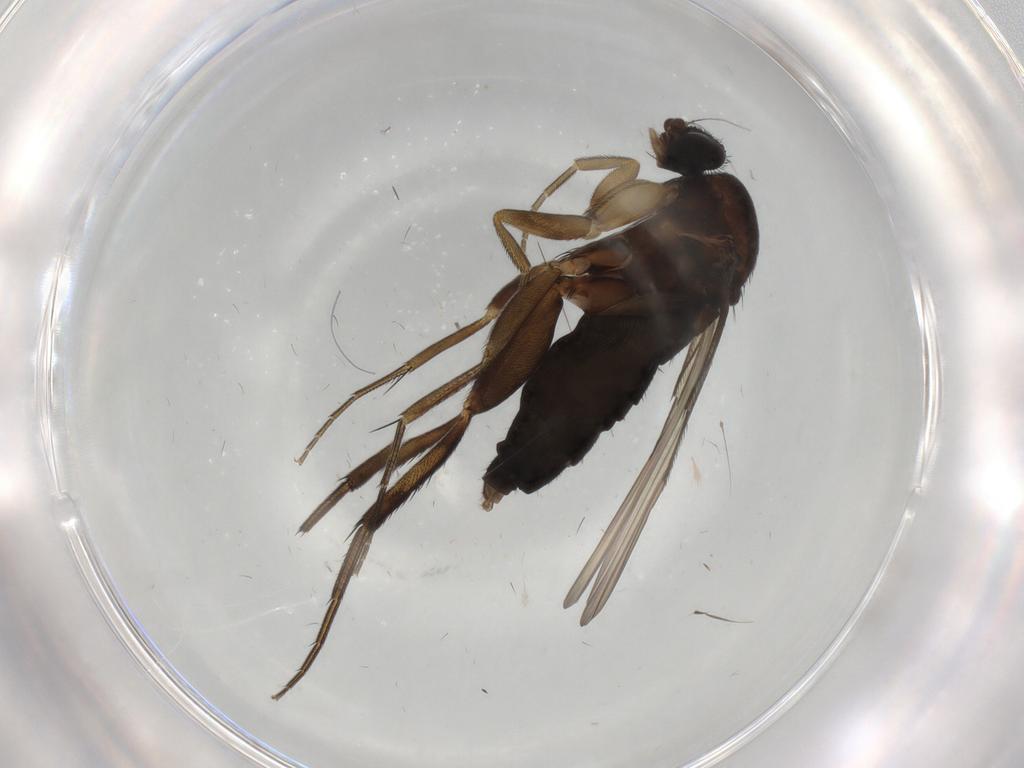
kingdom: Animalia
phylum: Arthropoda
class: Insecta
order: Diptera
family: Phoridae
